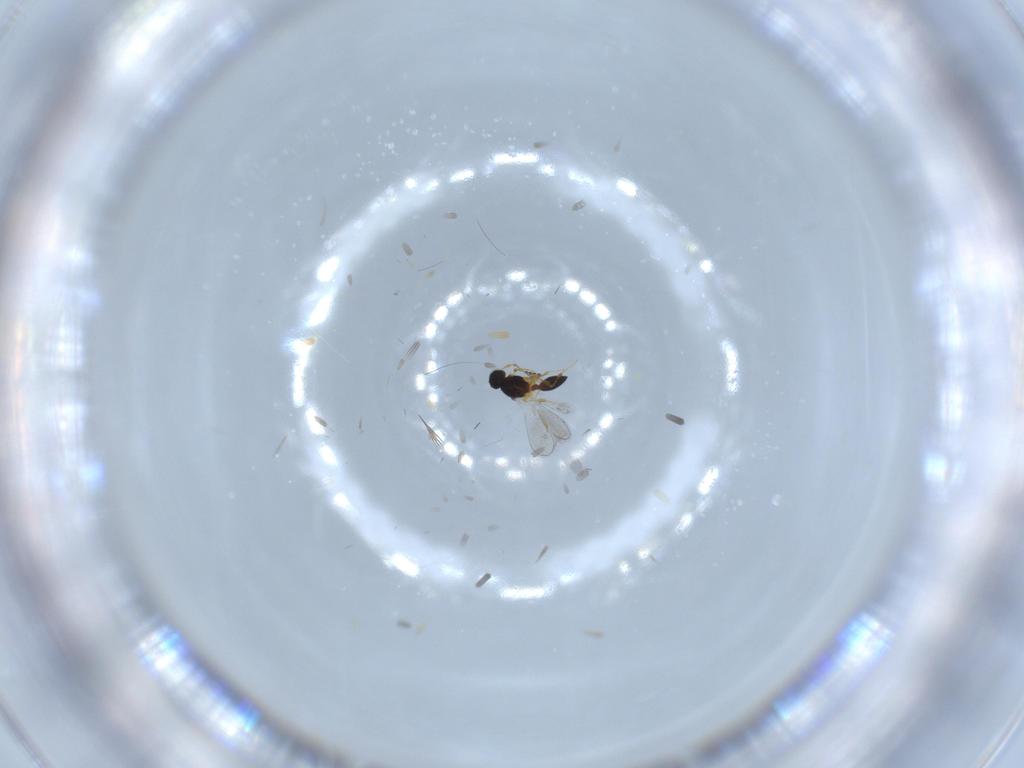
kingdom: Animalia
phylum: Arthropoda
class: Insecta
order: Hymenoptera
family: Platygastridae
